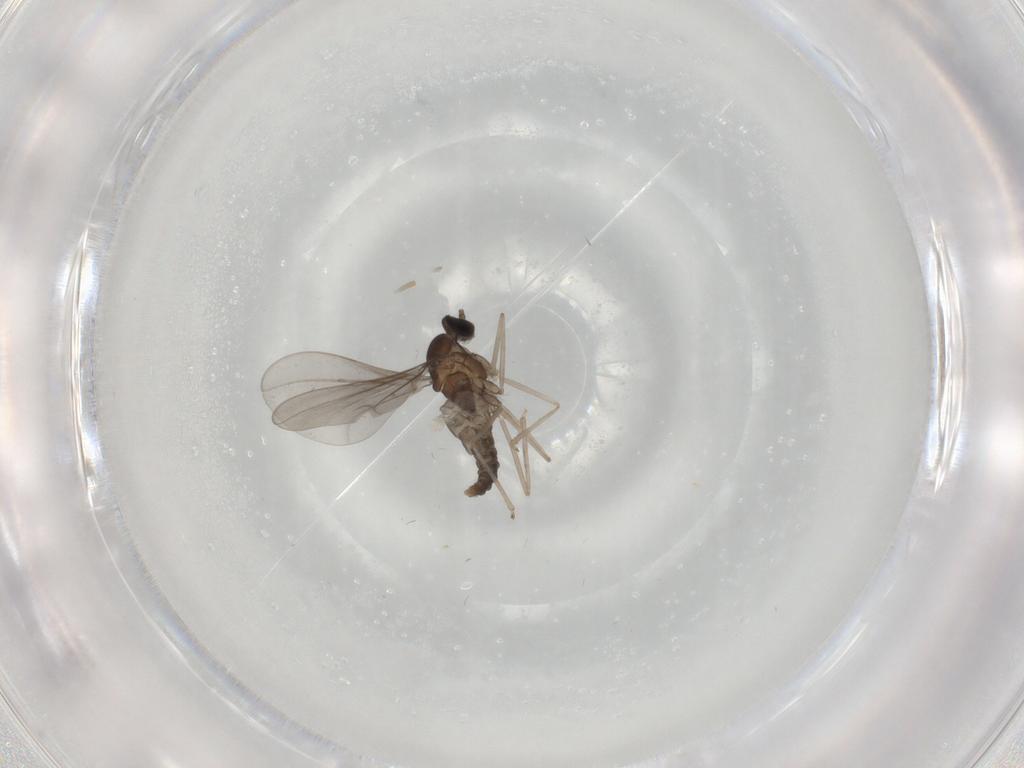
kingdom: Animalia
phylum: Arthropoda
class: Insecta
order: Diptera
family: Cecidomyiidae
